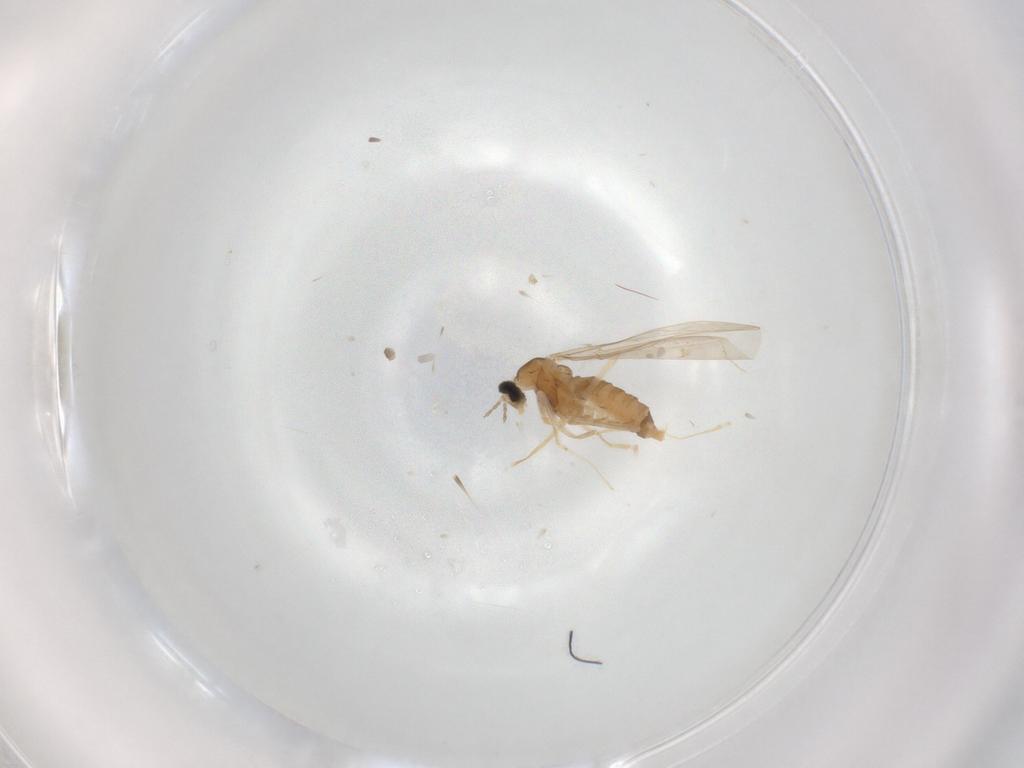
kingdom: Animalia
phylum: Arthropoda
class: Insecta
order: Diptera
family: Cecidomyiidae
